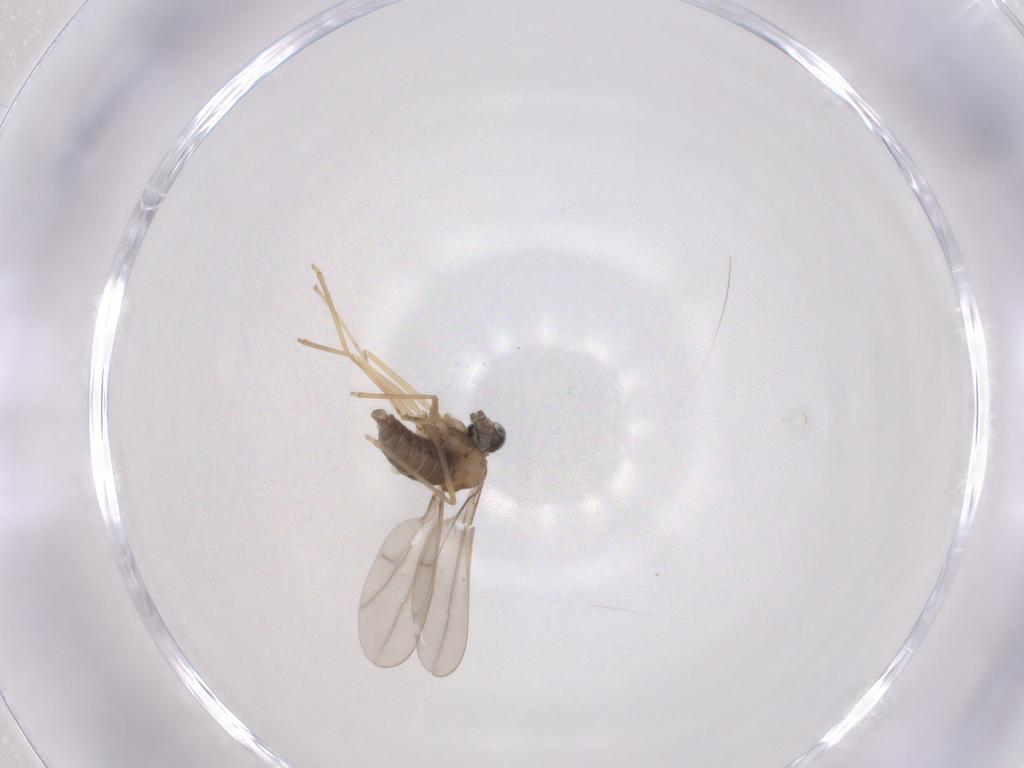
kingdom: Animalia
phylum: Arthropoda
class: Insecta
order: Diptera
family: Cecidomyiidae
